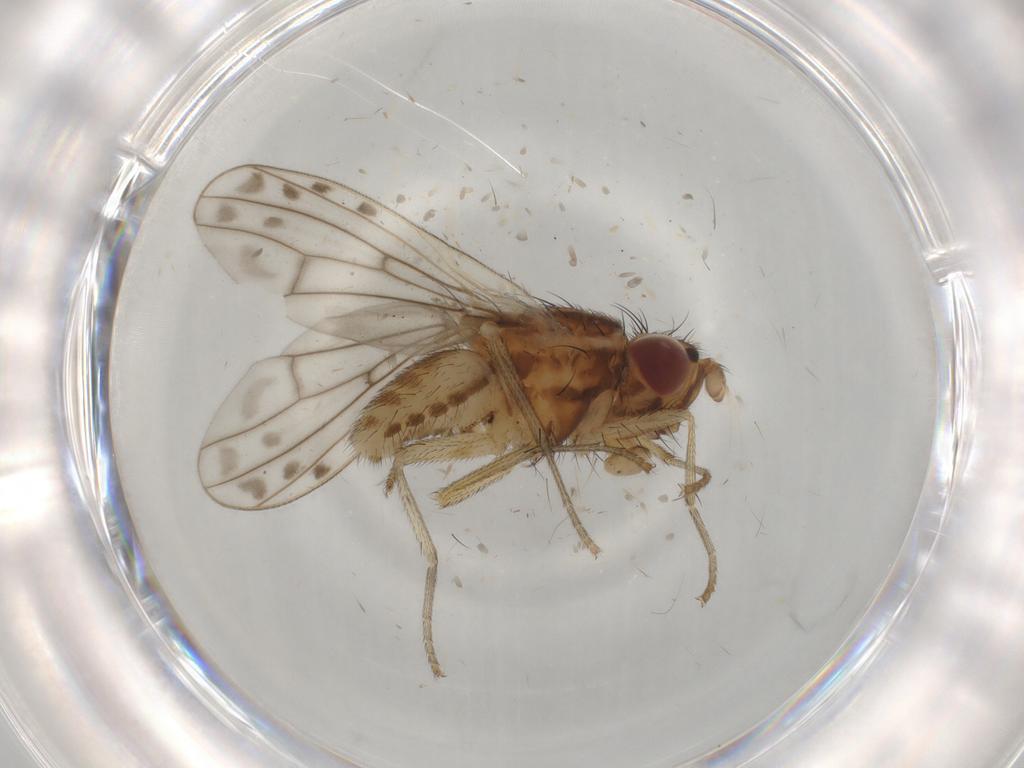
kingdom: Animalia
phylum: Arthropoda
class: Insecta
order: Diptera
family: Lauxaniidae
